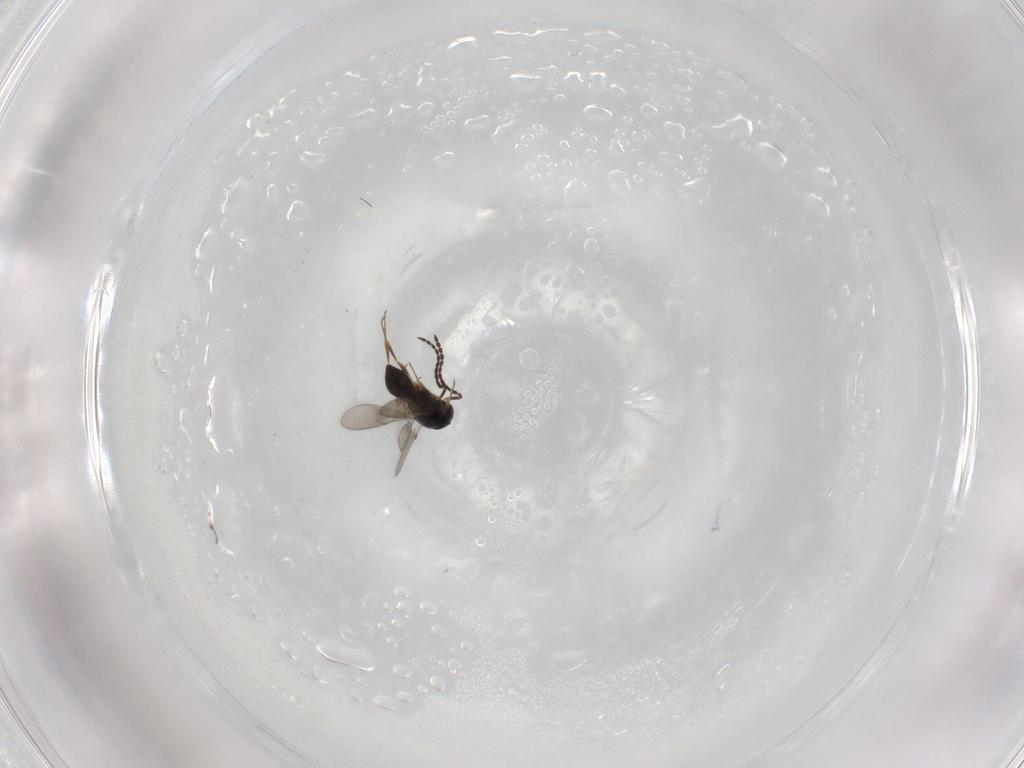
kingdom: Animalia
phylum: Arthropoda
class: Insecta
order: Hymenoptera
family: Scelionidae
